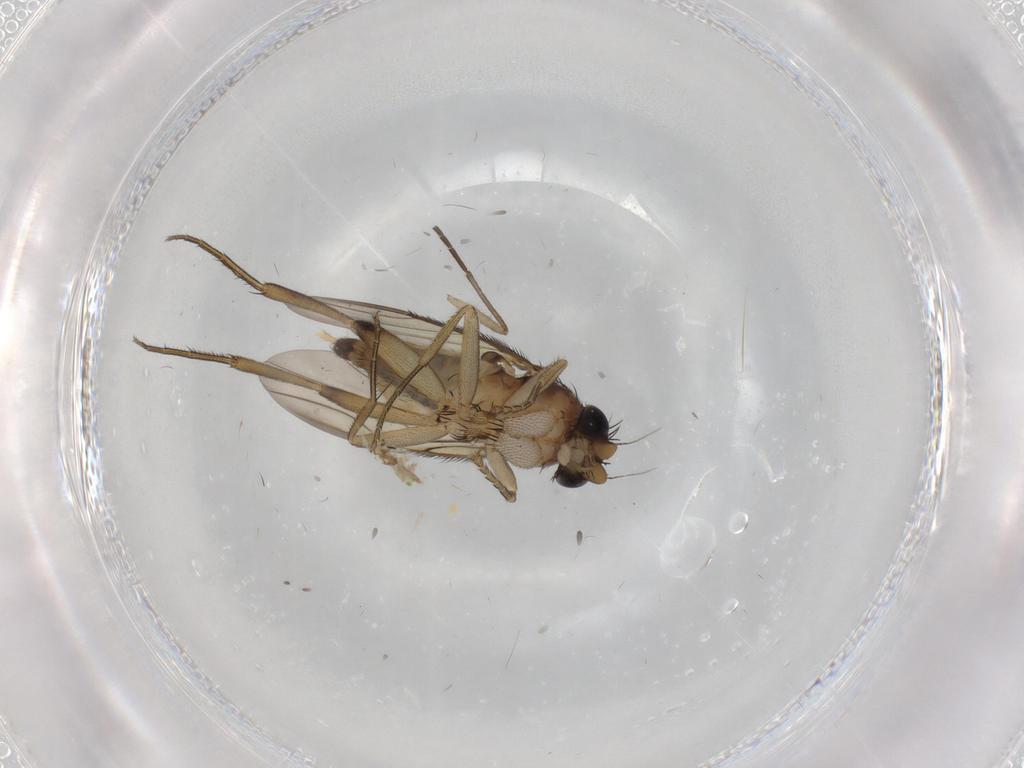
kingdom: Animalia
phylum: Arthropoda
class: Insecta
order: Diptera
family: Phoridae
